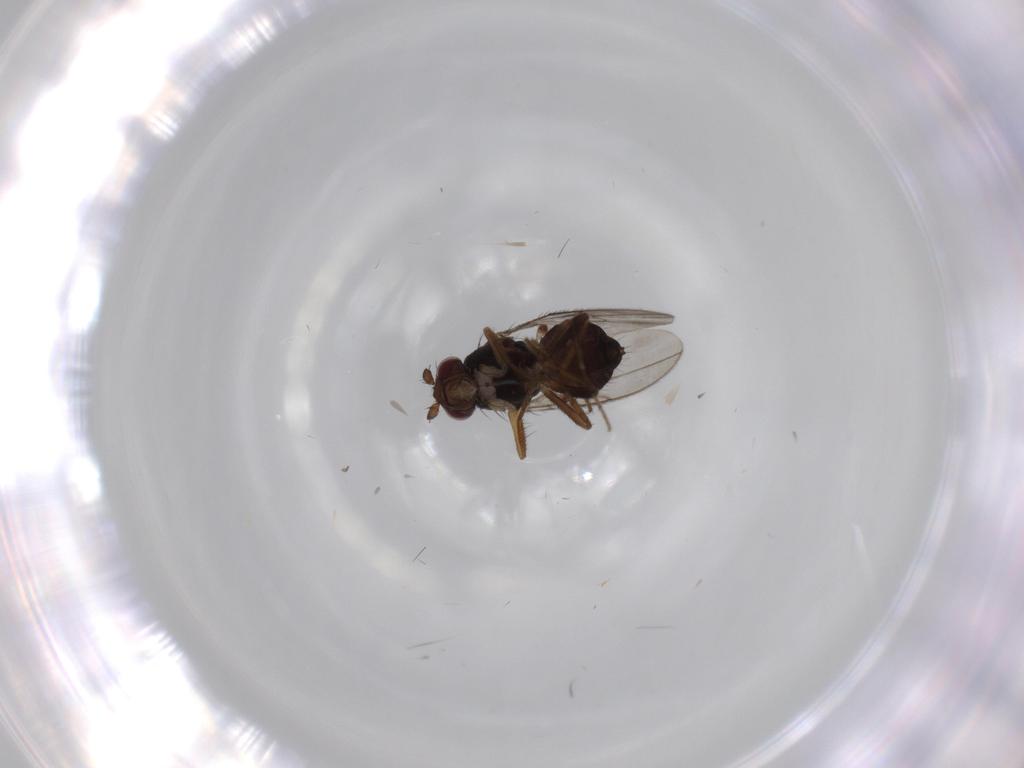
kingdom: Animalia
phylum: Arthropoda
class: Insecta
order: Diptera
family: Sphaeroceridae
